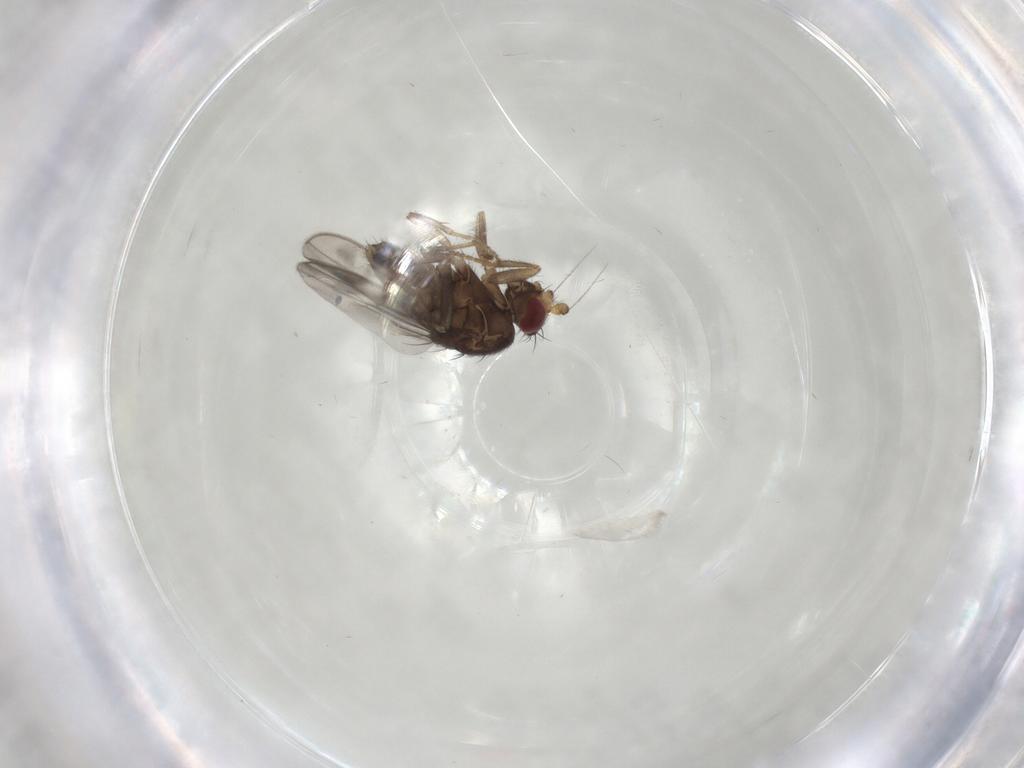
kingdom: Animalia
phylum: Arthropoda
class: Insecta
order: Diptera
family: Sphaeroceridae
